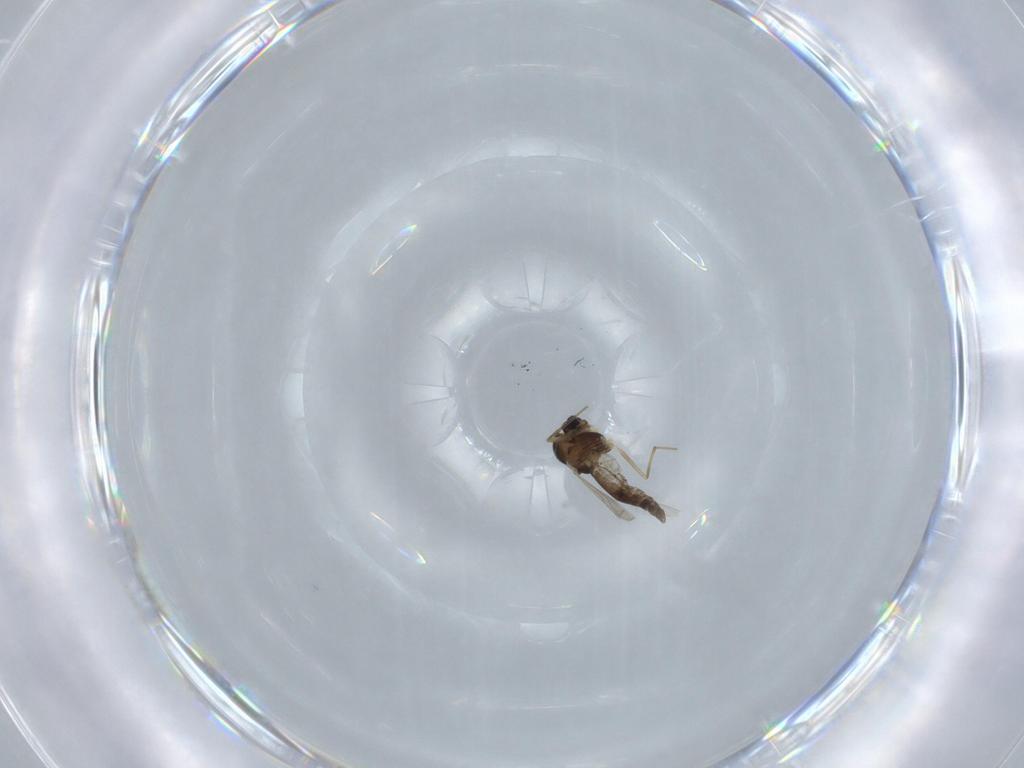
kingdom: Animalia
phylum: Arthropoda
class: Insecta
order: Diptera
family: Chironomidae
